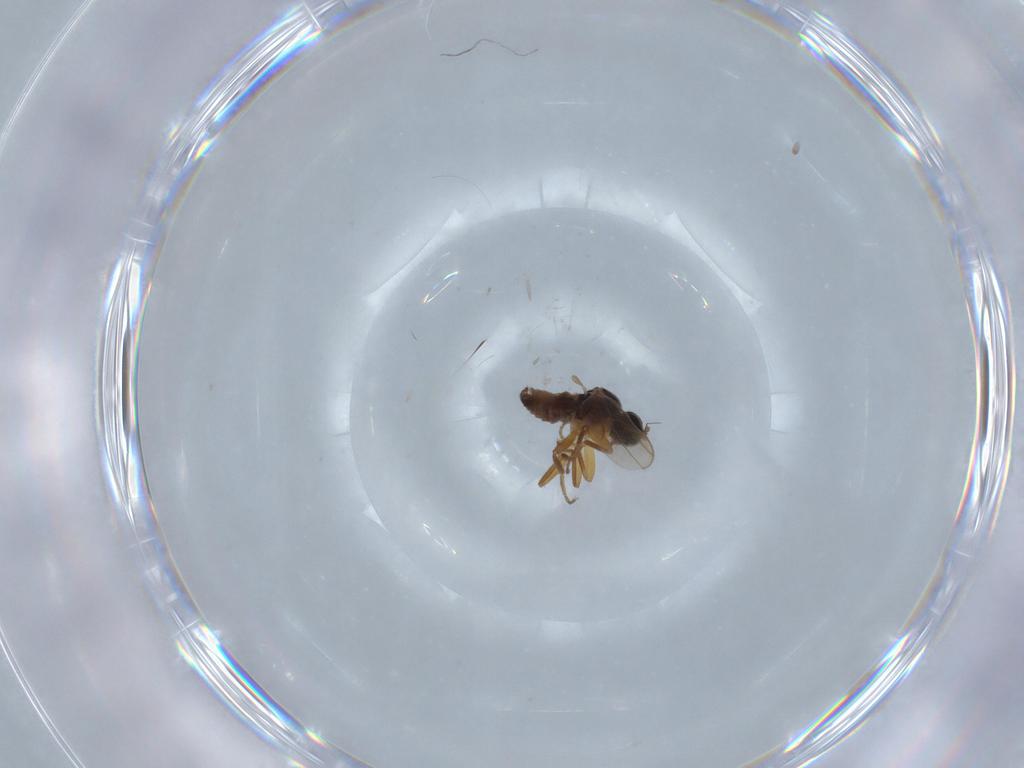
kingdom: Animalia
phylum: Arthropoda
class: Insecta
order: Diptera
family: Hybotidae
